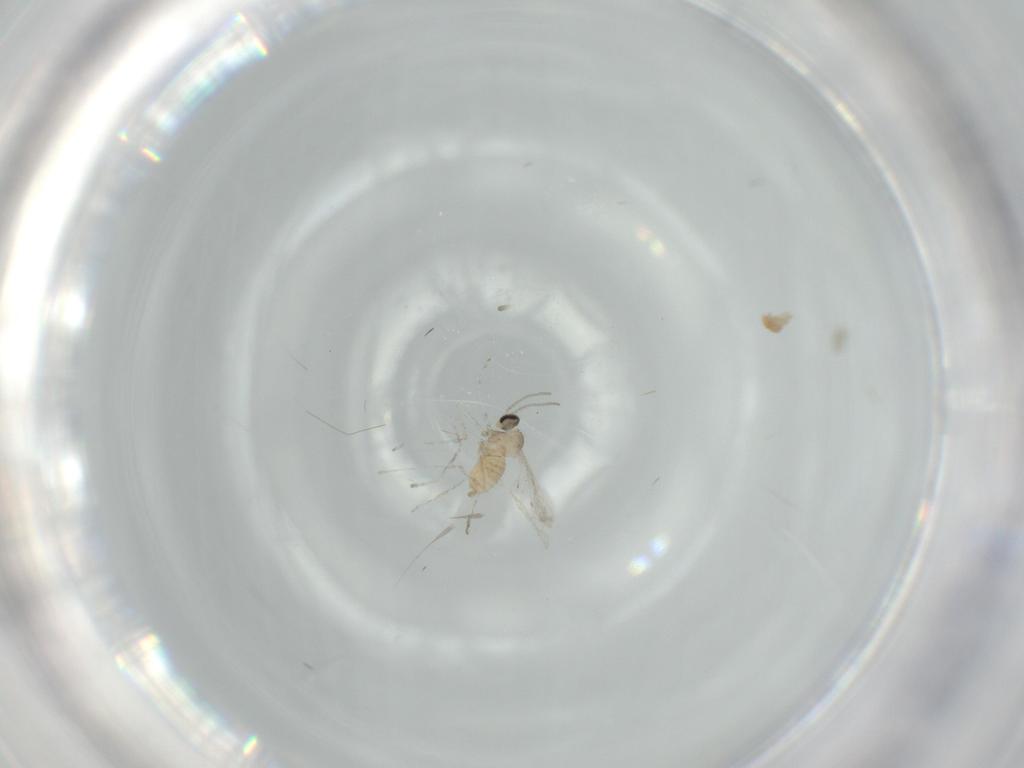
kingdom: Animalia
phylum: Arthropoda
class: Insecta
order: Diptera
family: Cecidomyiidae
